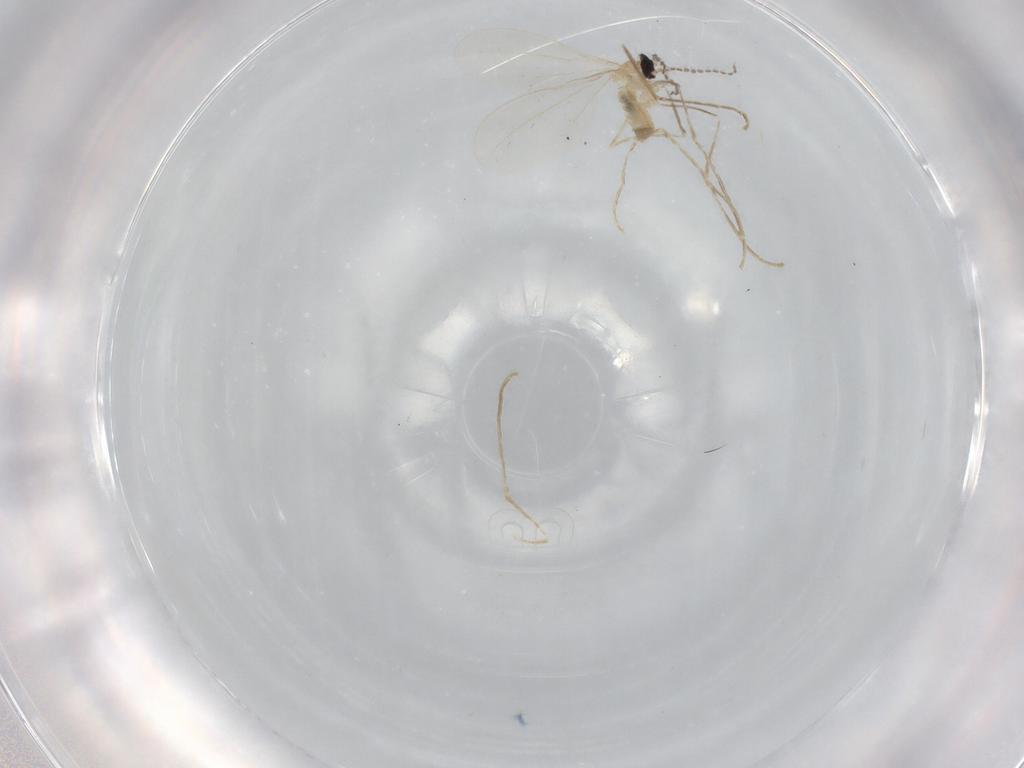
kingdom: Animalia
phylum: Arthropoda
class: Insecta
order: Diptera
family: Cecidomyiidae
